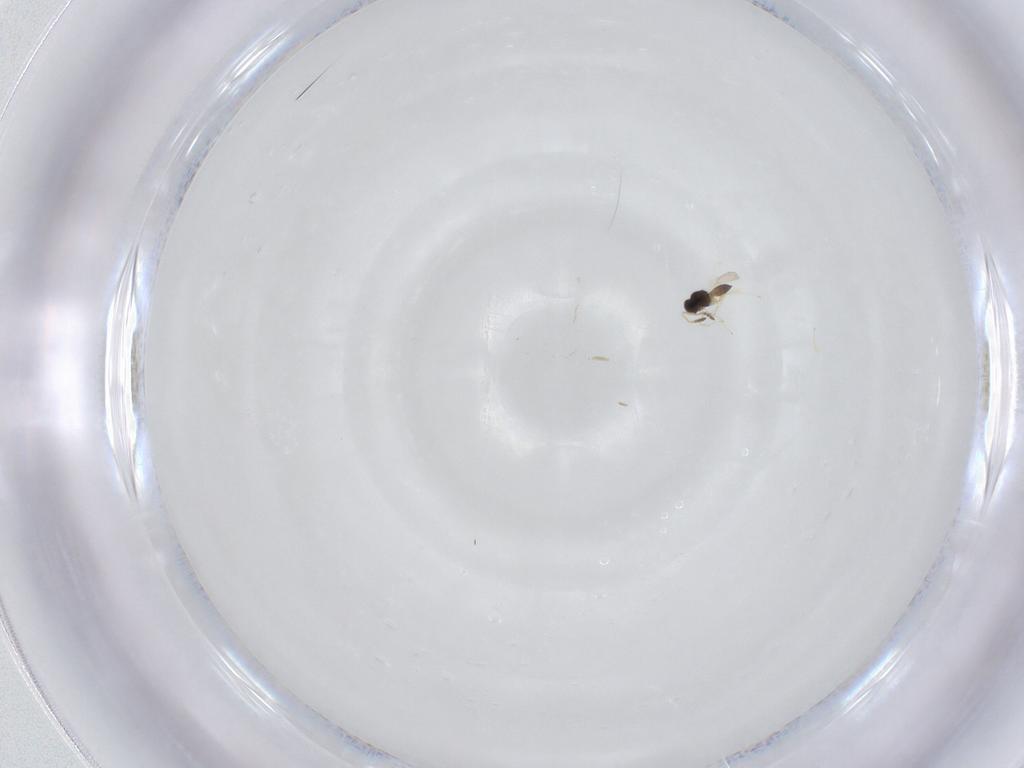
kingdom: Animalia
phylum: Arthropoda
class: Insecta
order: Hymenoptera
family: Scelionidae
